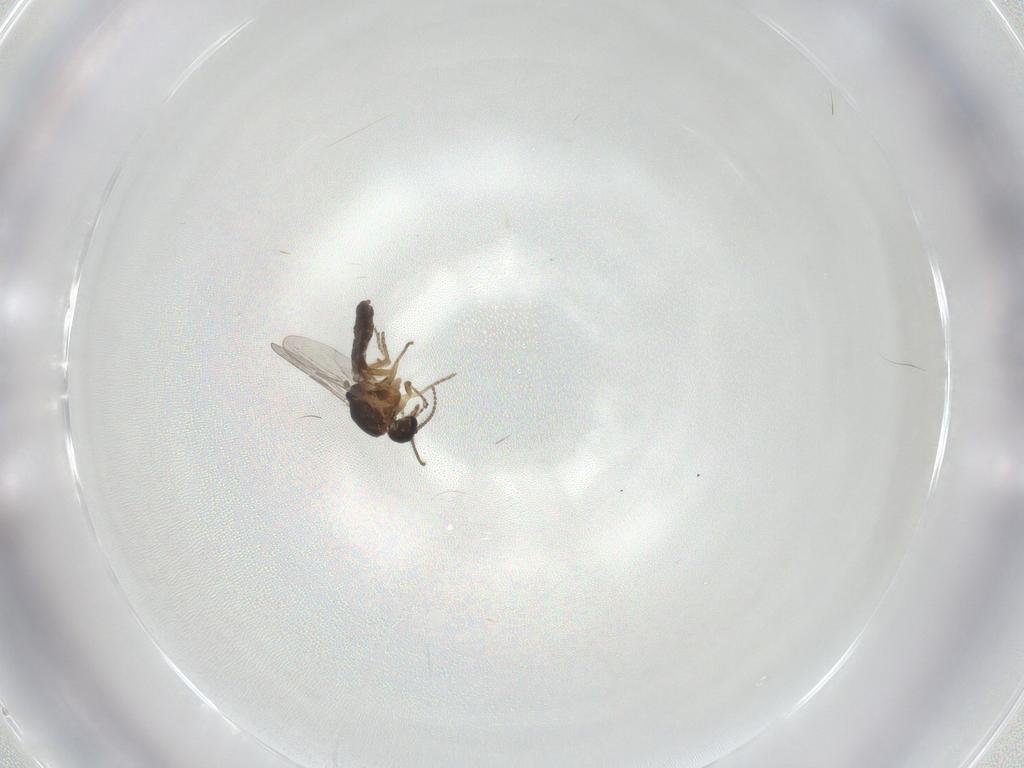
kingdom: Animalia
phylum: Arthropoda
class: Insecta
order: Diptera
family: Ceratopogonidae
